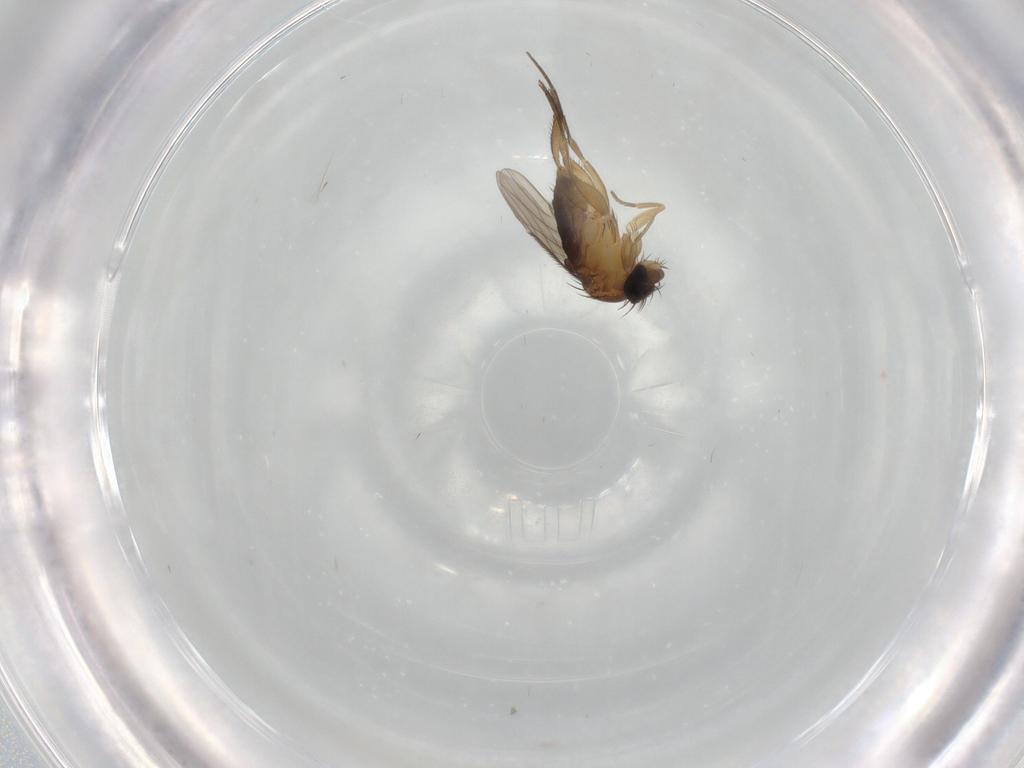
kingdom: Animalia
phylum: Arthropoda
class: Insecta
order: Diptera
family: Phoridae
